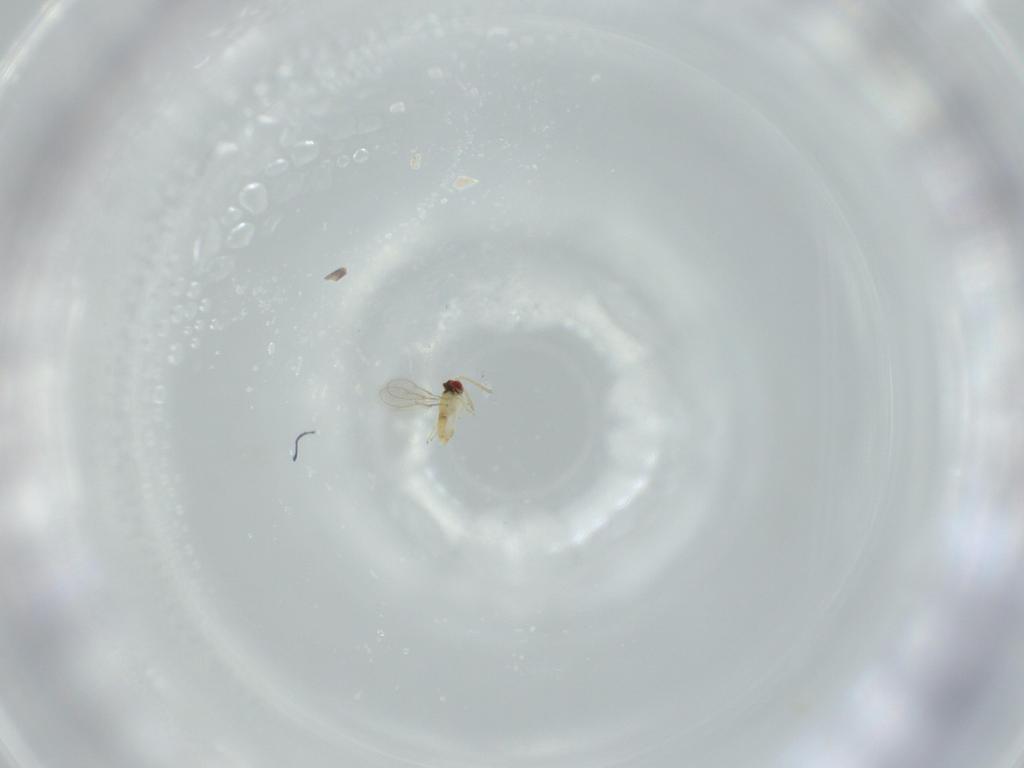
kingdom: Animalia
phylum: Arthropoda
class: Insecta
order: Hymenoptera
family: Aphelinidae
